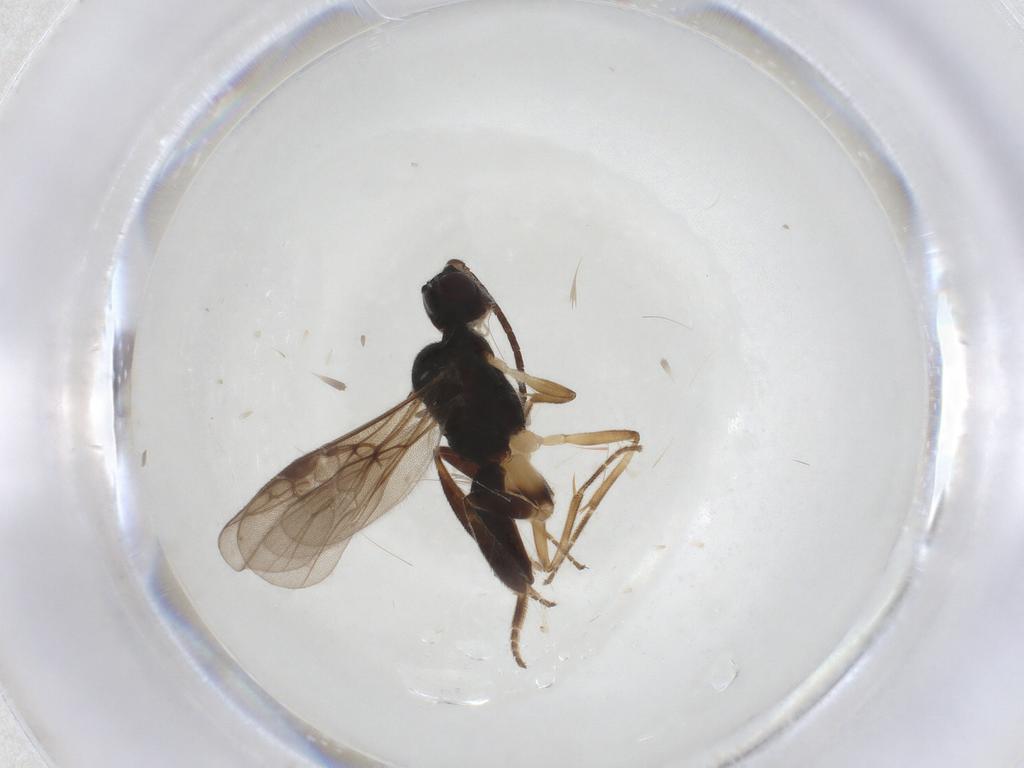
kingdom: Animalia
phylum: Arthropoda
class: Insecta
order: Hymenoptera
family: Braconidae
